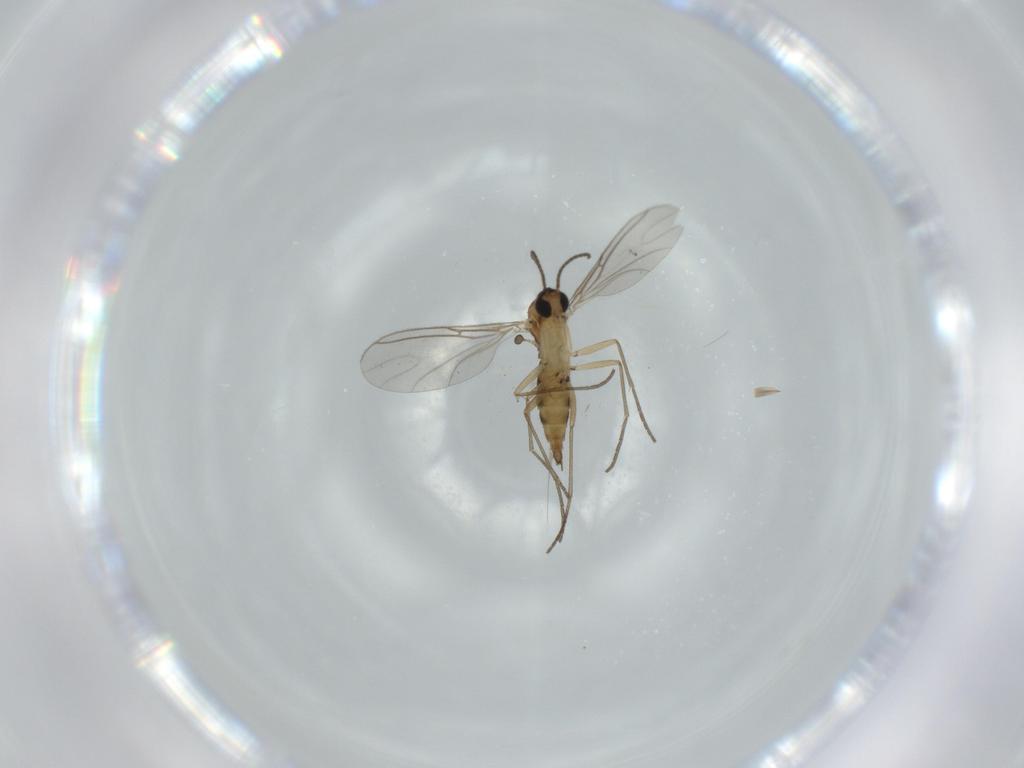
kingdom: Animalia
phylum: Arthropoda
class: Insecta
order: Diptera
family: Sciaridae
